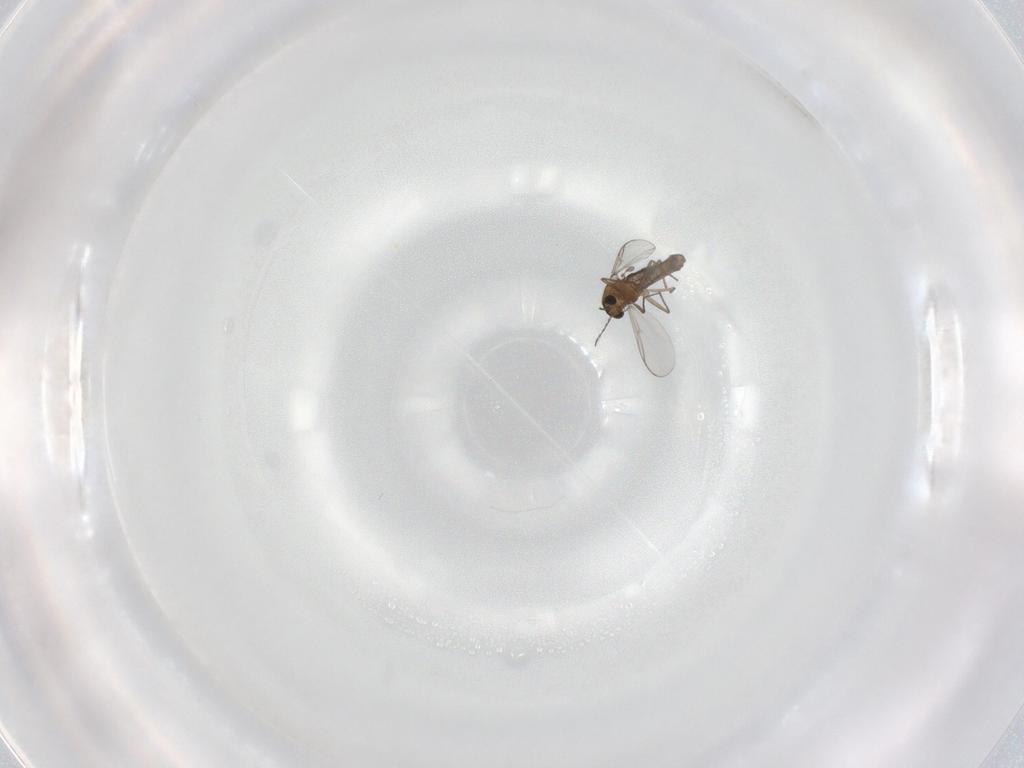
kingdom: Animalia
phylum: Arthropoda
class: Insecta
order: Diptera
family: Chironomidae
